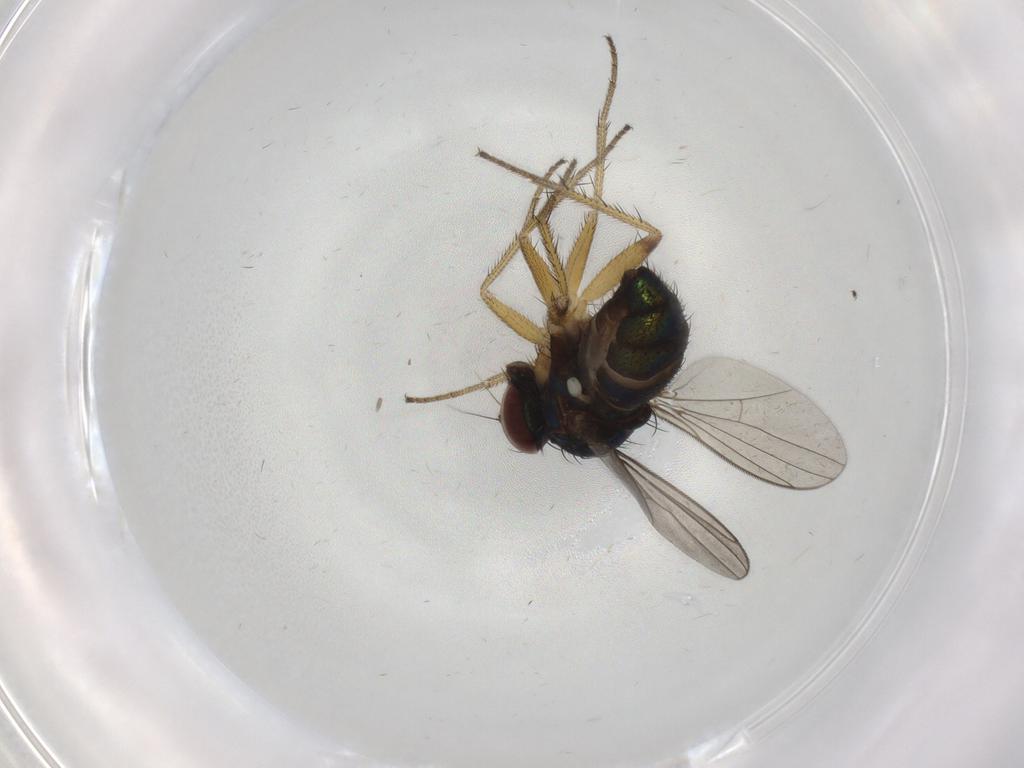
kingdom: Animalia
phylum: Arthropoda
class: Insecta
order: Diptera
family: Dolichopodidae
